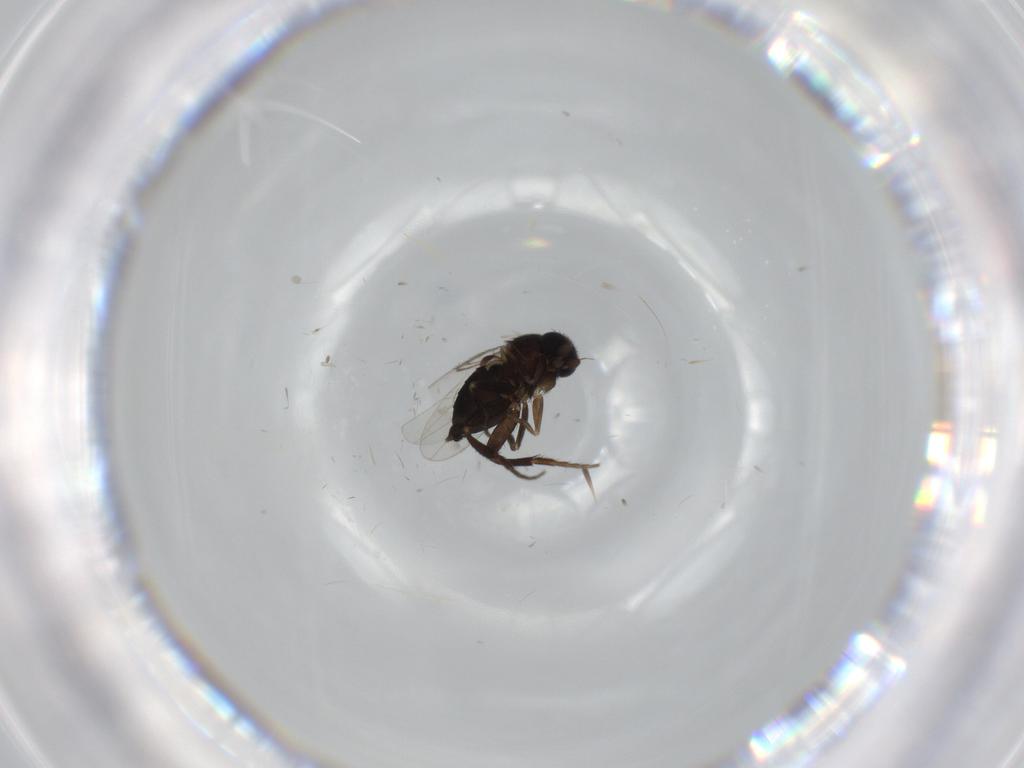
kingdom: Animalia
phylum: Arthropoda
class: Insecta
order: Diptera
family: Phoridae
